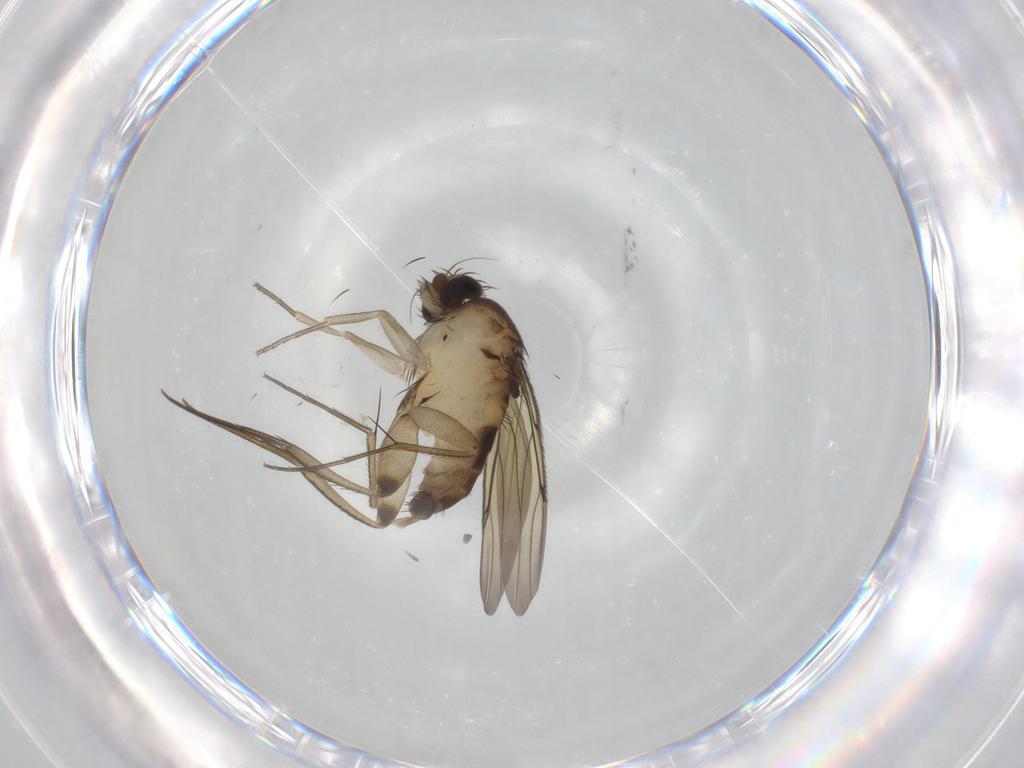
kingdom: Animalia
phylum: Arthropoda
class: Insecta
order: Diptera
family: Phoridae
